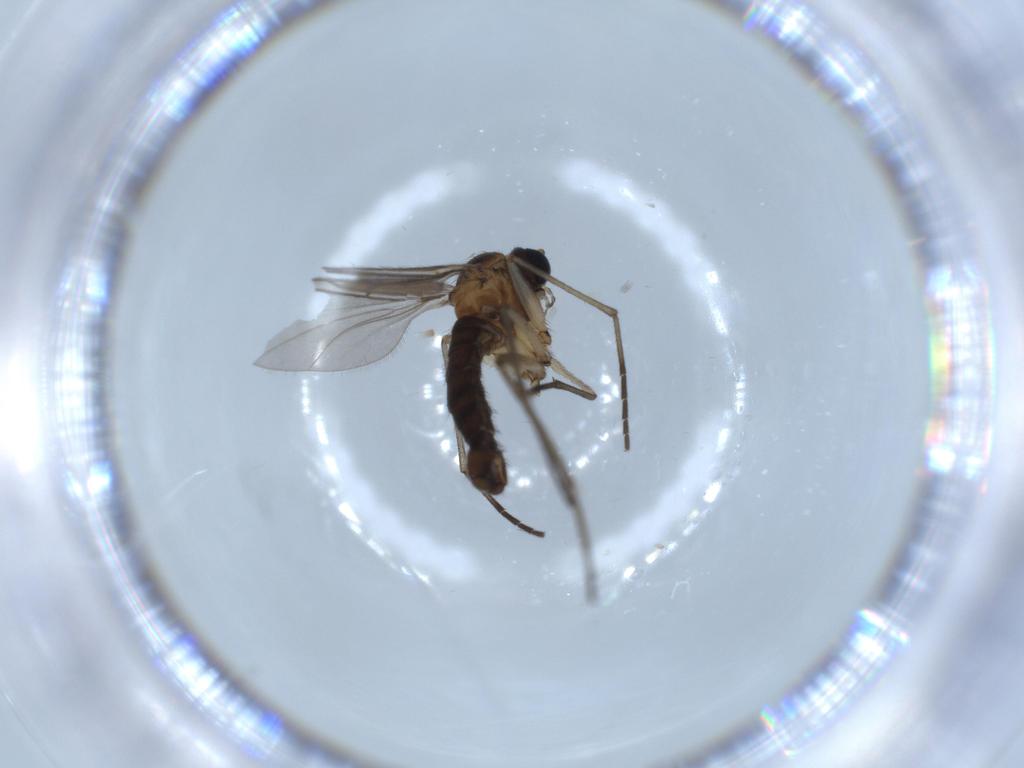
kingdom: Animalia
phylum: Arthropoda
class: Insecta
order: Diptera
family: Sciaridae
